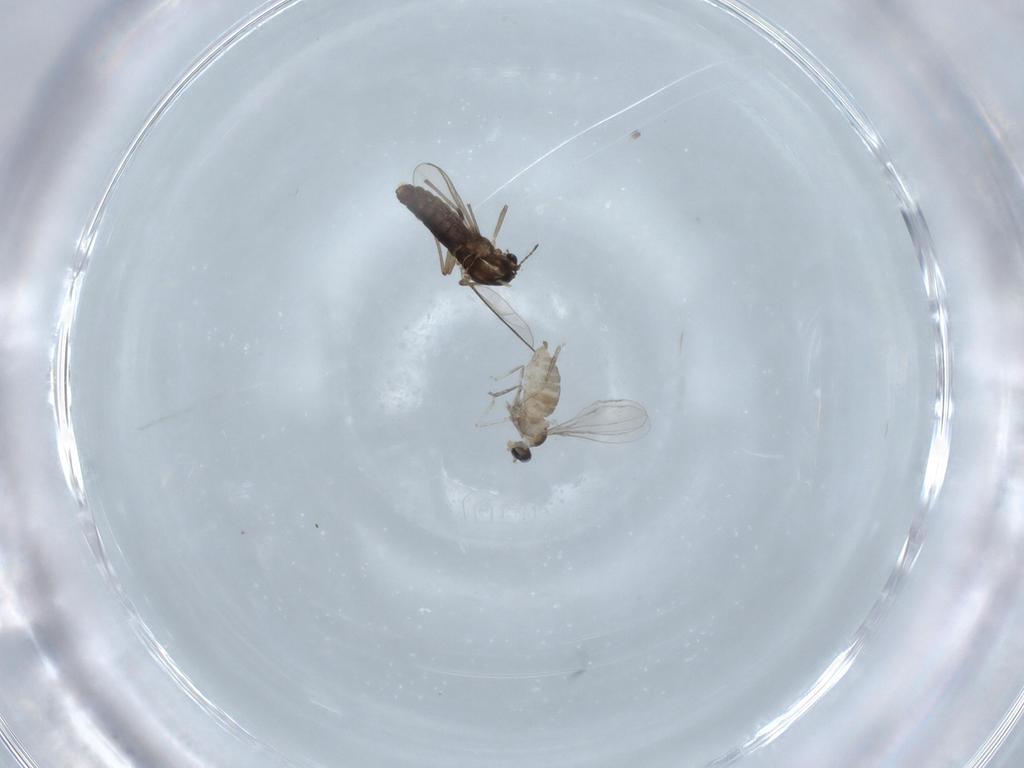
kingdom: Animalia
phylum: Arthropoda
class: Insecta
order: Diptera
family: Cecidomyiidae
